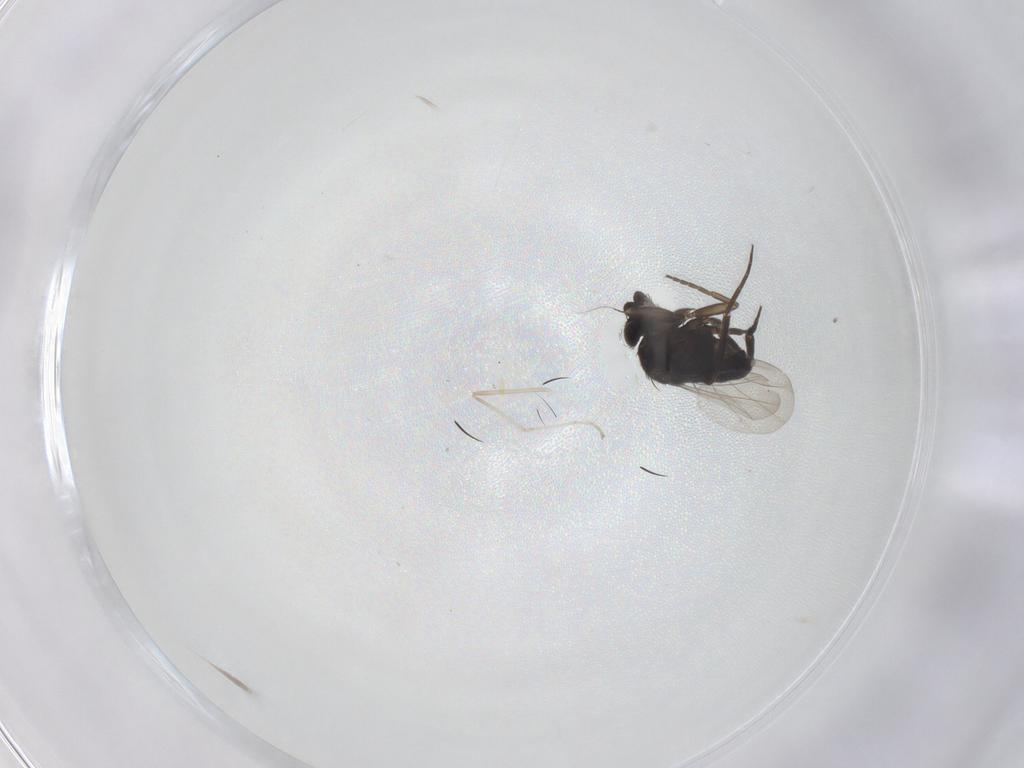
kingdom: Animalia
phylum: Arthropoda
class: Insecta
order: Diptera
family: Cecidomyiidae
